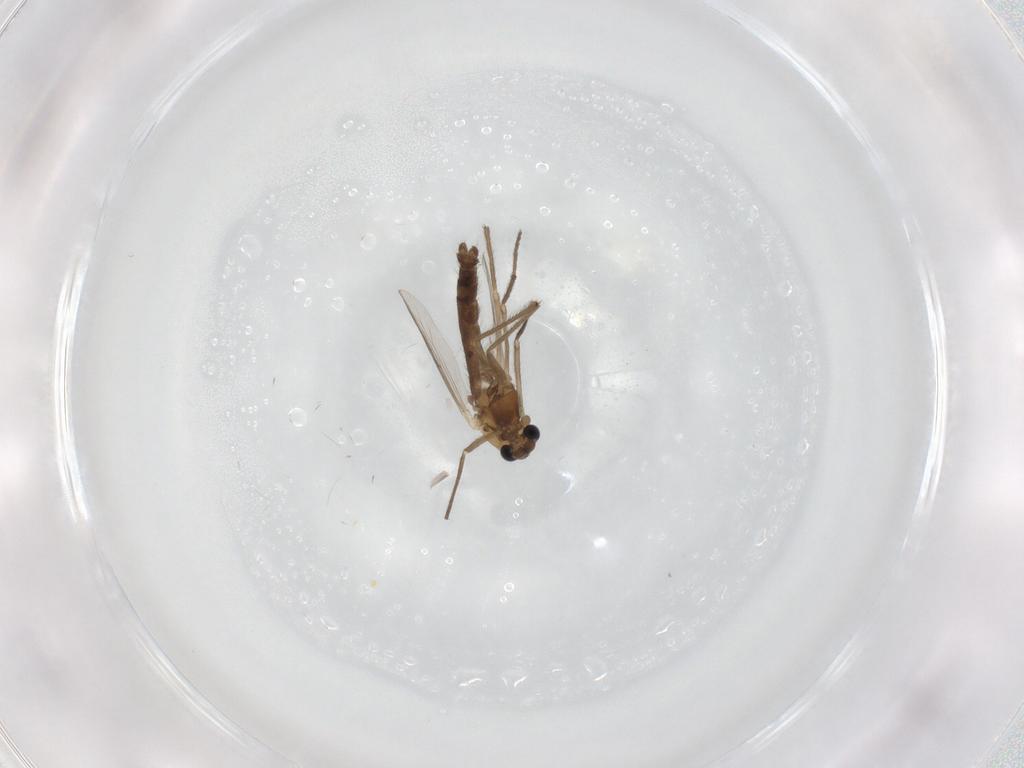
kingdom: Animalia
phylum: Arthropoda
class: Insecta
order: Diptera
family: Chironomidae
